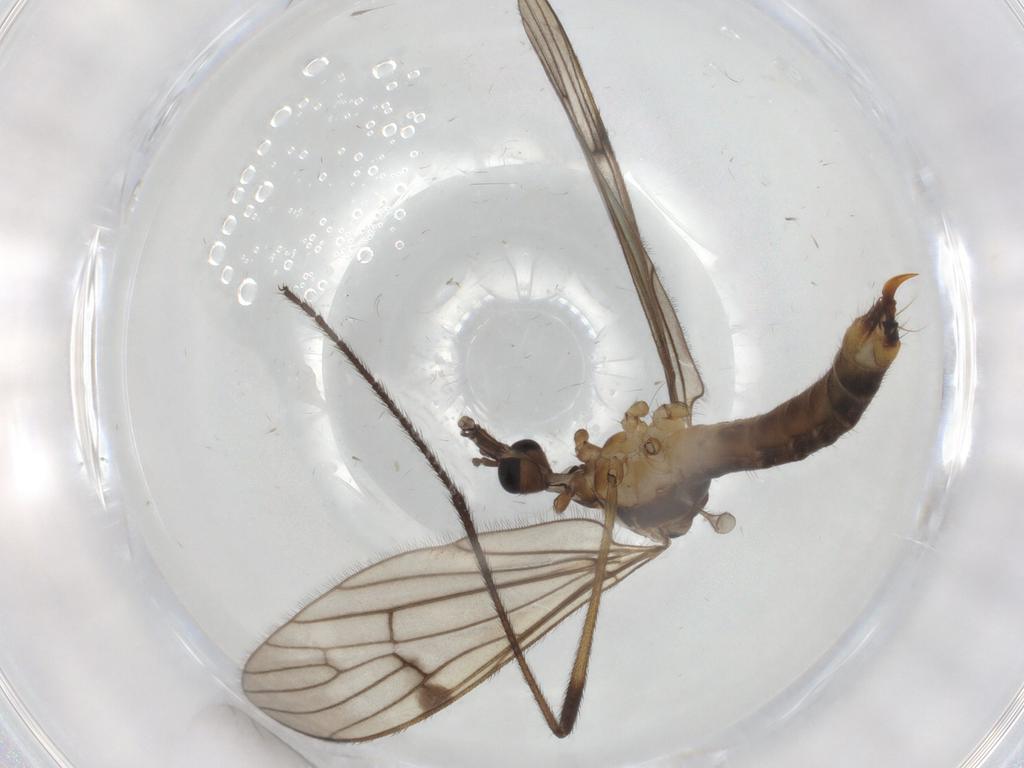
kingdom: Animalia
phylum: Arthropoda
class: Insecta
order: Diptera
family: Limoniidae
